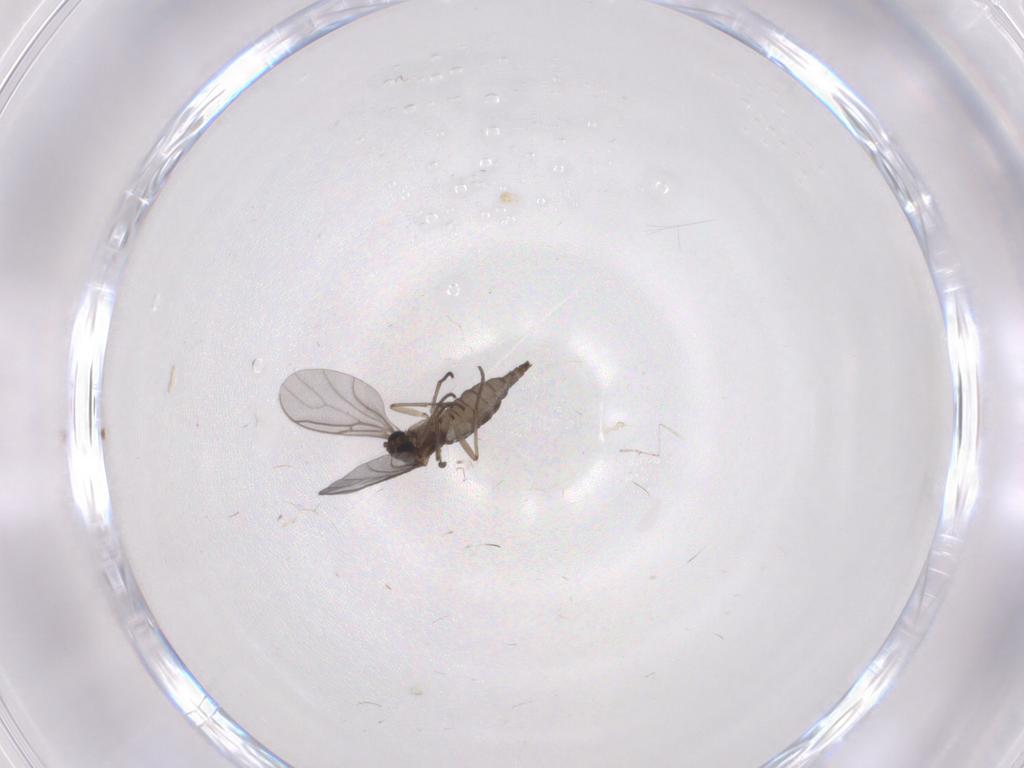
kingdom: Animalia
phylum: Arthropoda
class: Insecta
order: Diptera
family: Sciaridae
